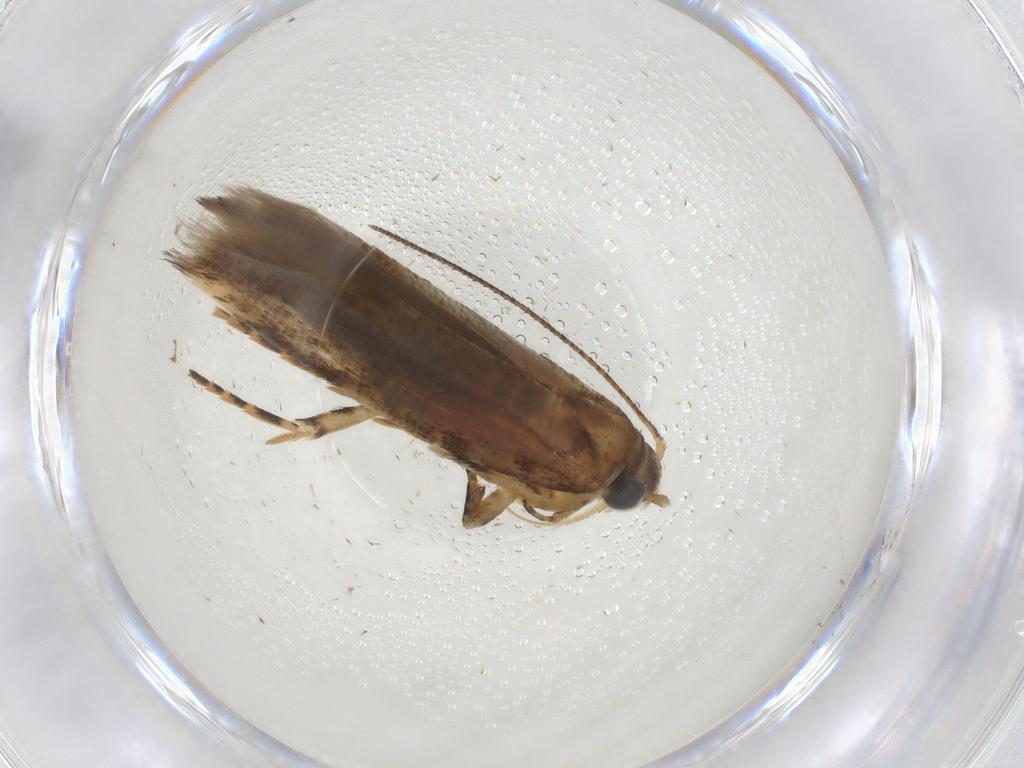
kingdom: Animalia
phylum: Arthropoda
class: Insecta
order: Lepidoptera
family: Gelechiidae
